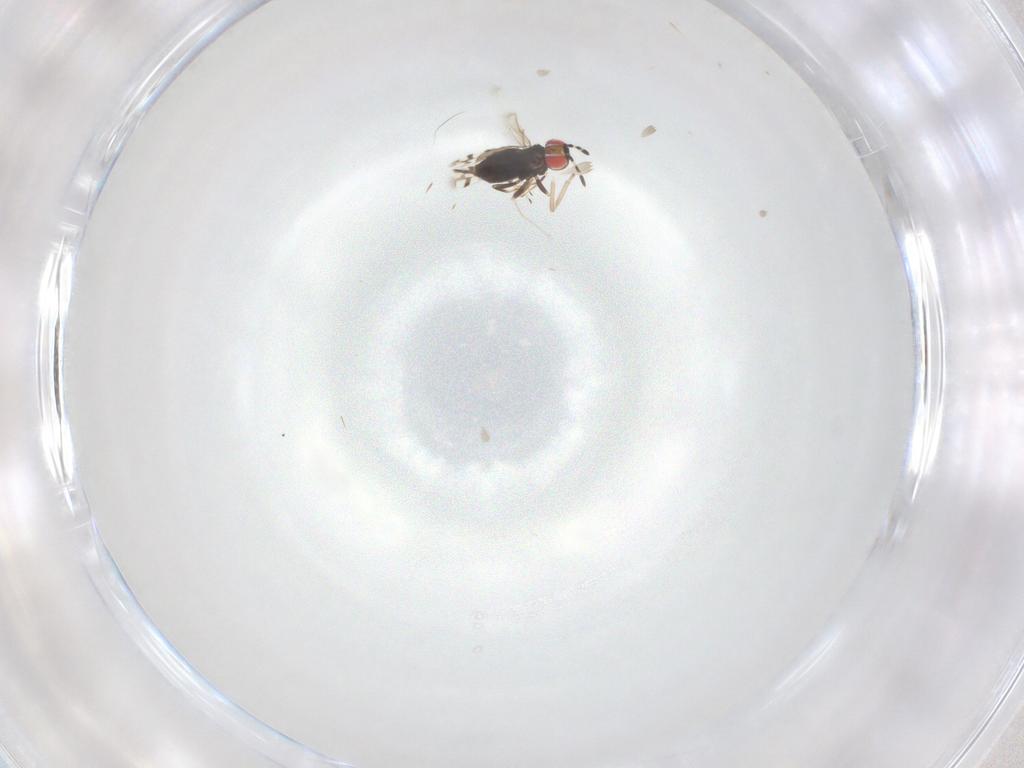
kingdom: Animalia
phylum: Arthropoda
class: Insecta
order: Hymenoptera
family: Azotidae
